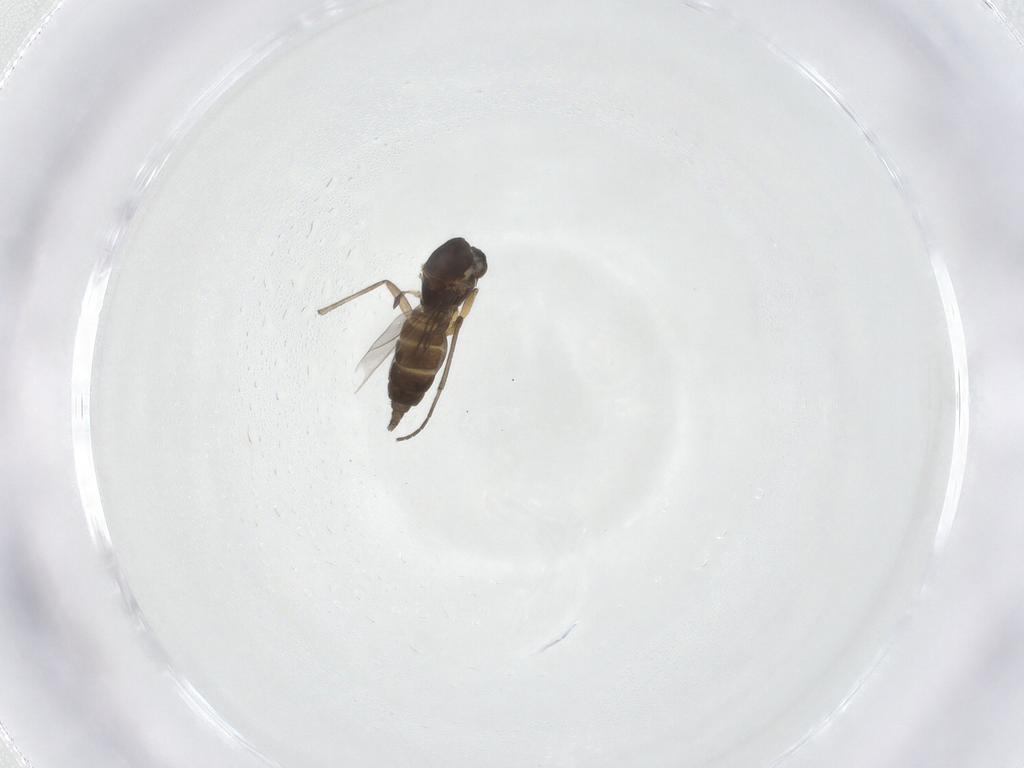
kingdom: Animalia
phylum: Arthropoda
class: Insecta
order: Diptera
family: Sciaridae
